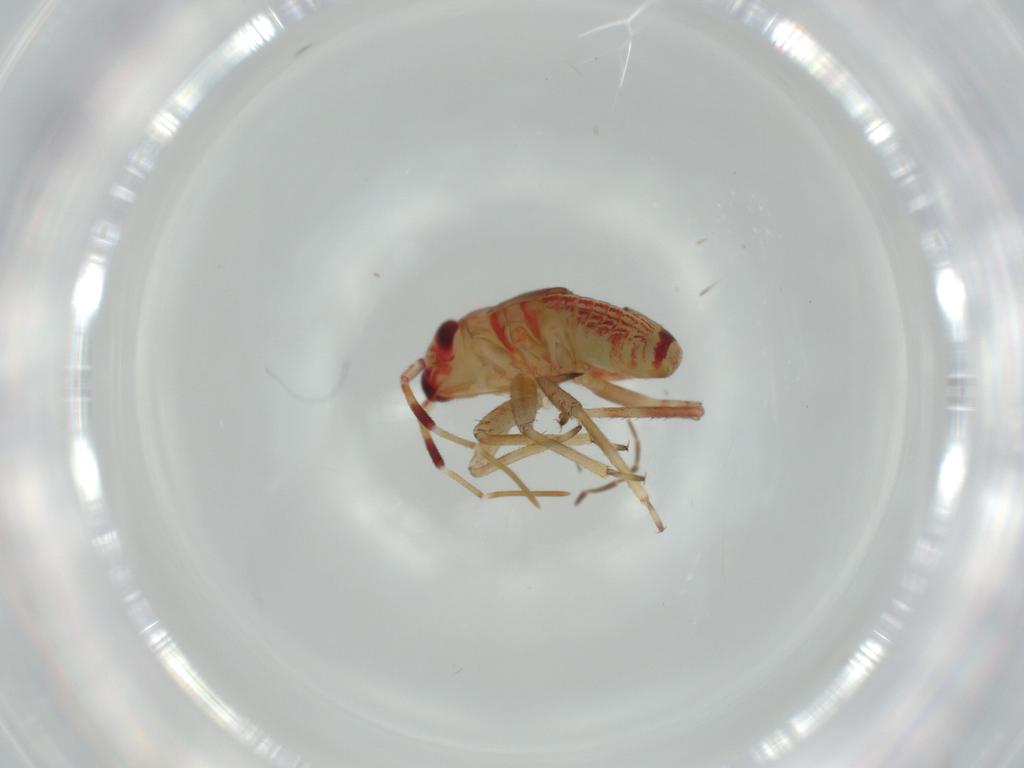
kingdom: Animalia
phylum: Arthropoda
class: Insecta
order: Hemiptera
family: Miridae
